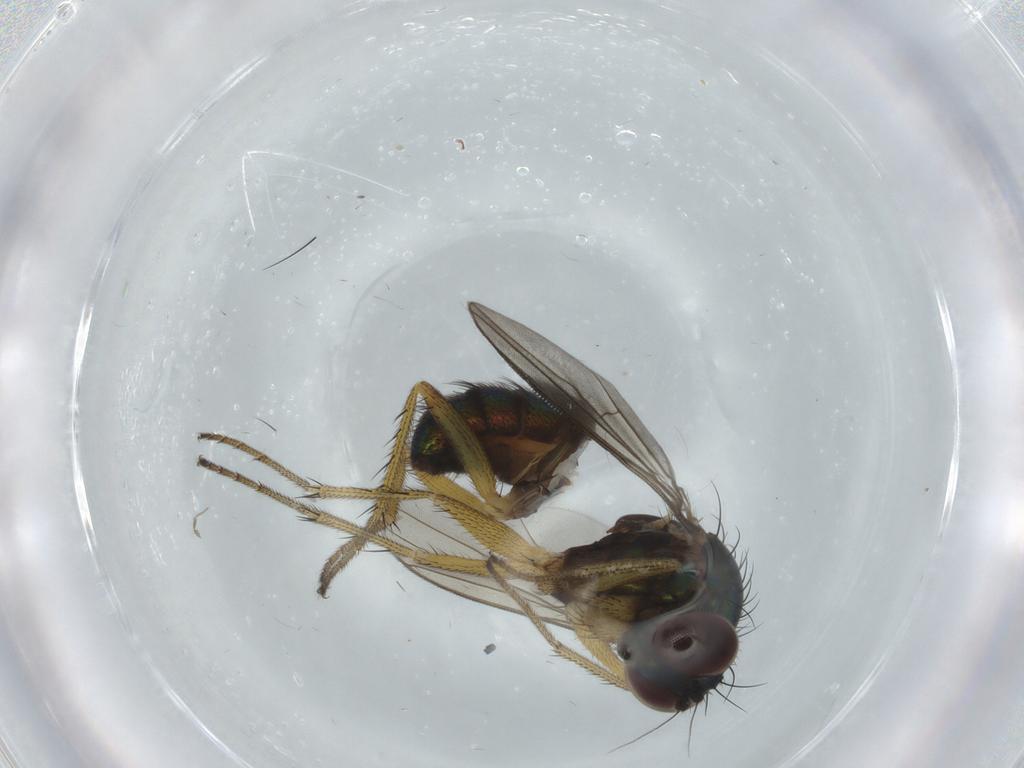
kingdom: Animalia
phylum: Arthropoda
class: Insecta
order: Diptera
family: Dolichopodidae
